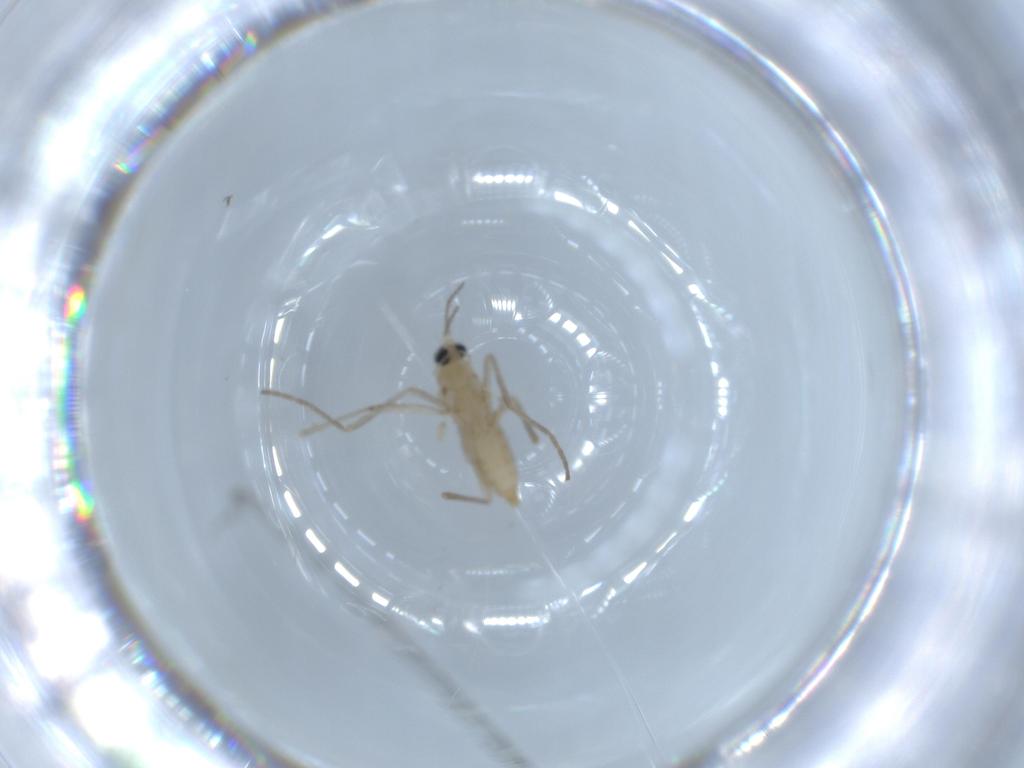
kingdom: Animalia
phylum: Arthropoda
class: Insecta
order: Diptera
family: Cecidomyiidae
